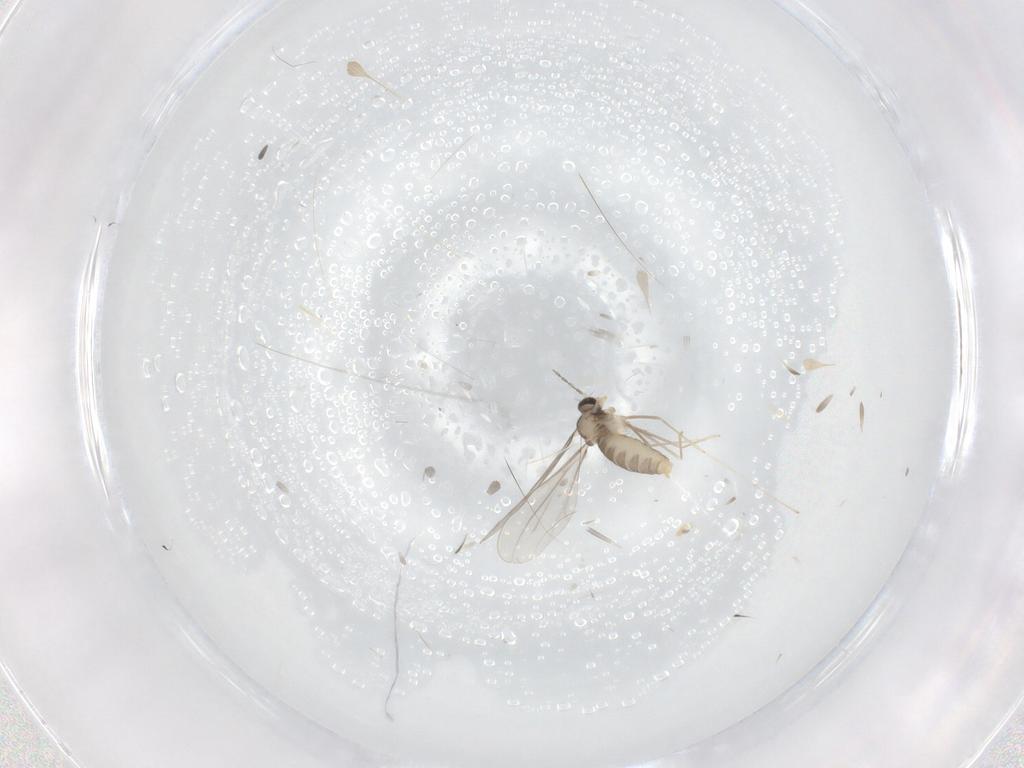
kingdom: Animalia
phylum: Arthropoda
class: Insecta
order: Diptera
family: Cecidomyiidae
